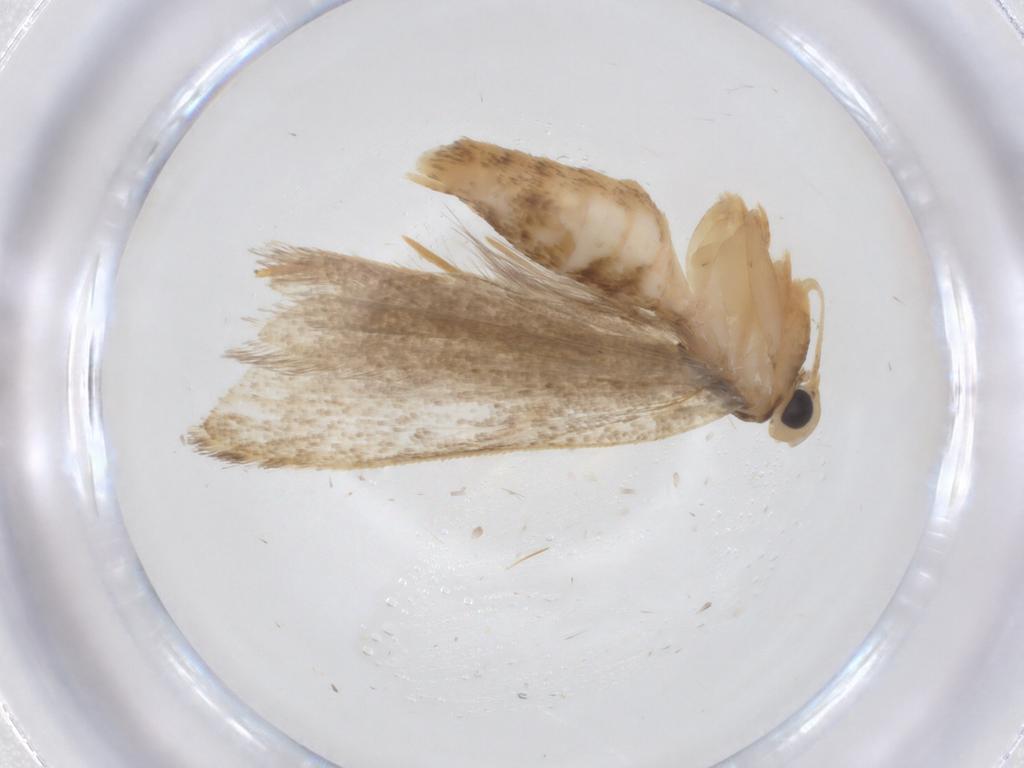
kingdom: Animalia
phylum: Arthropoda
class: Insecta
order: Lepidoptera
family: Gelechiidae
